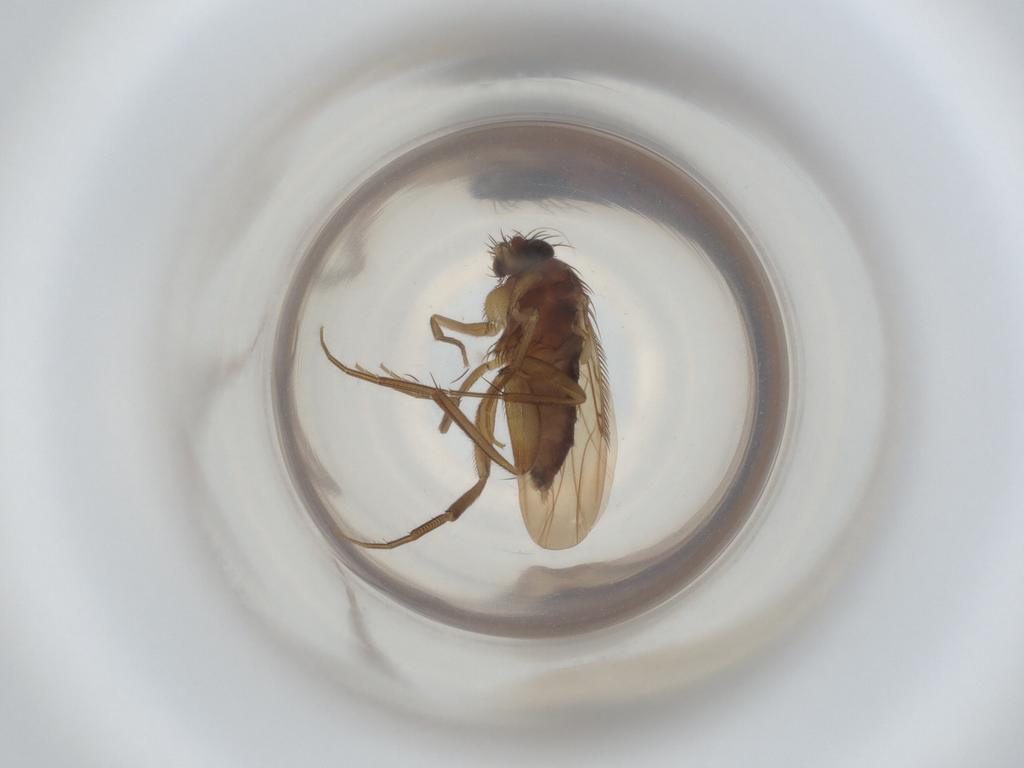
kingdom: Animalia
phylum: Arthropoda
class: Insecta
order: Diptera
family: Phoridae
